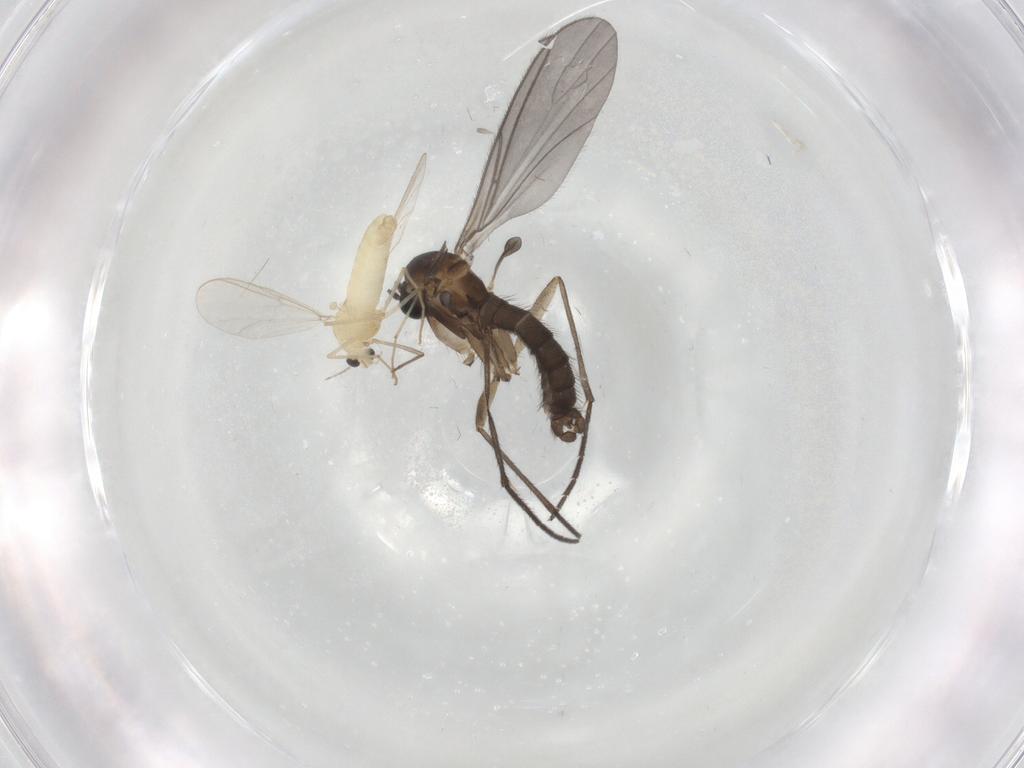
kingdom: Animalia
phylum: Arthropoda
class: Insecta
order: Diptera
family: Sciaridae
